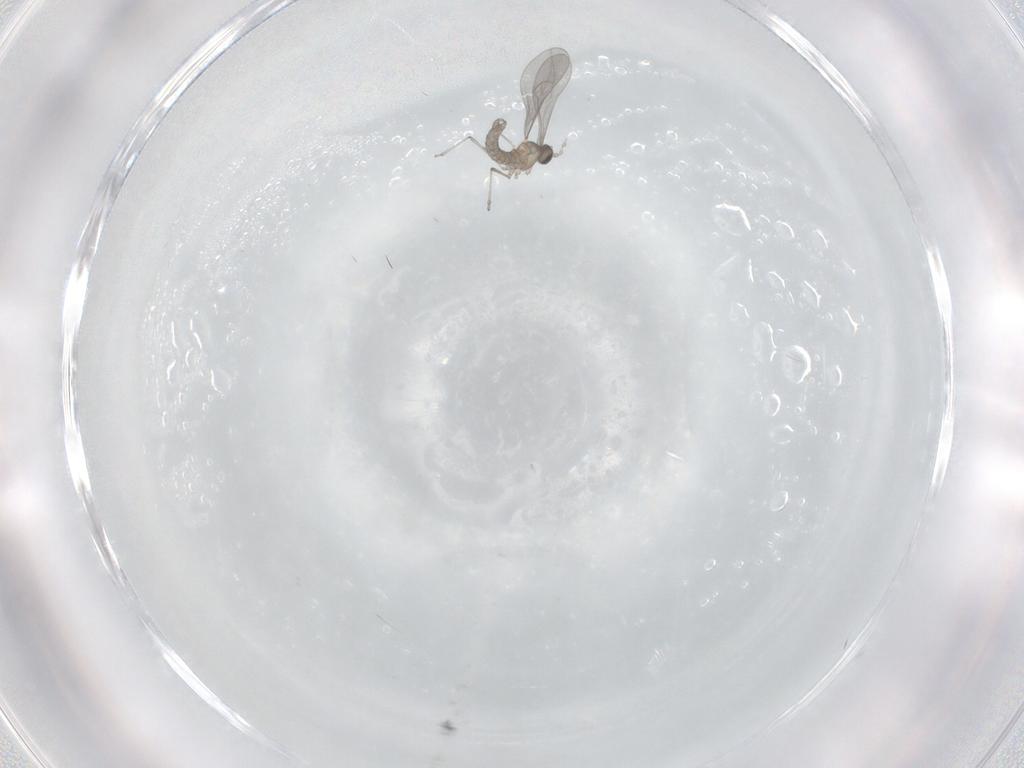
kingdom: Animalia
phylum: Arthropoda
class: Insecta
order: Diptera
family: Cecidomyiidae
